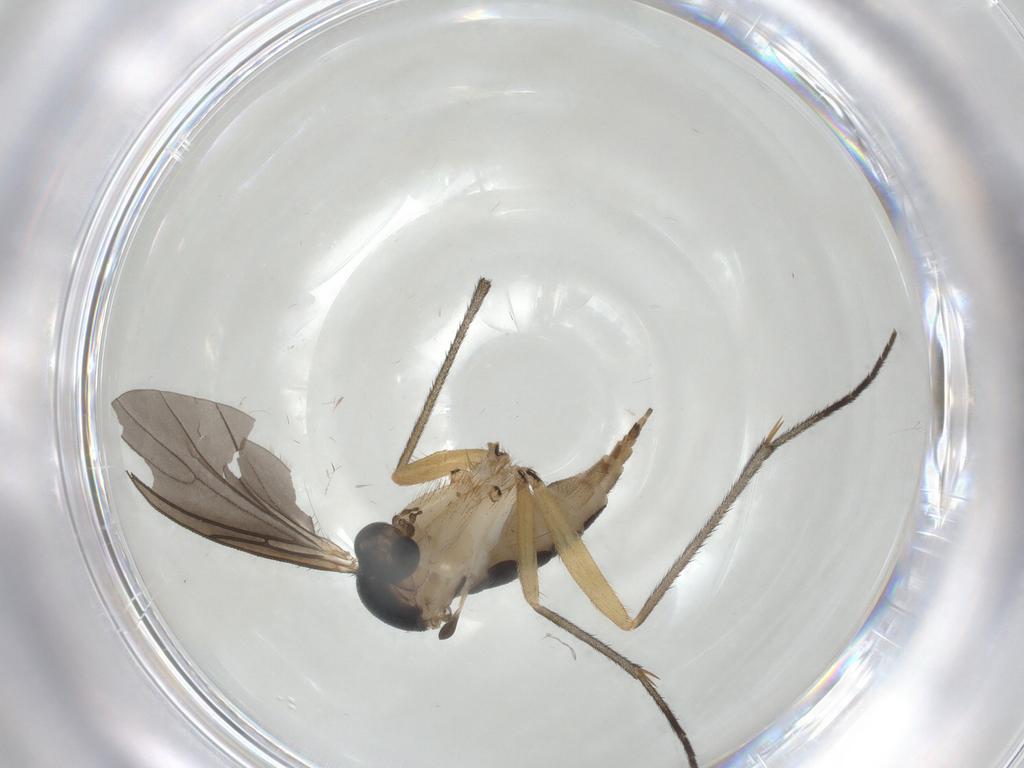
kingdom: Animalia
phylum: Arthropoda
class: Insecta
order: Diptera
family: Sciaridae
